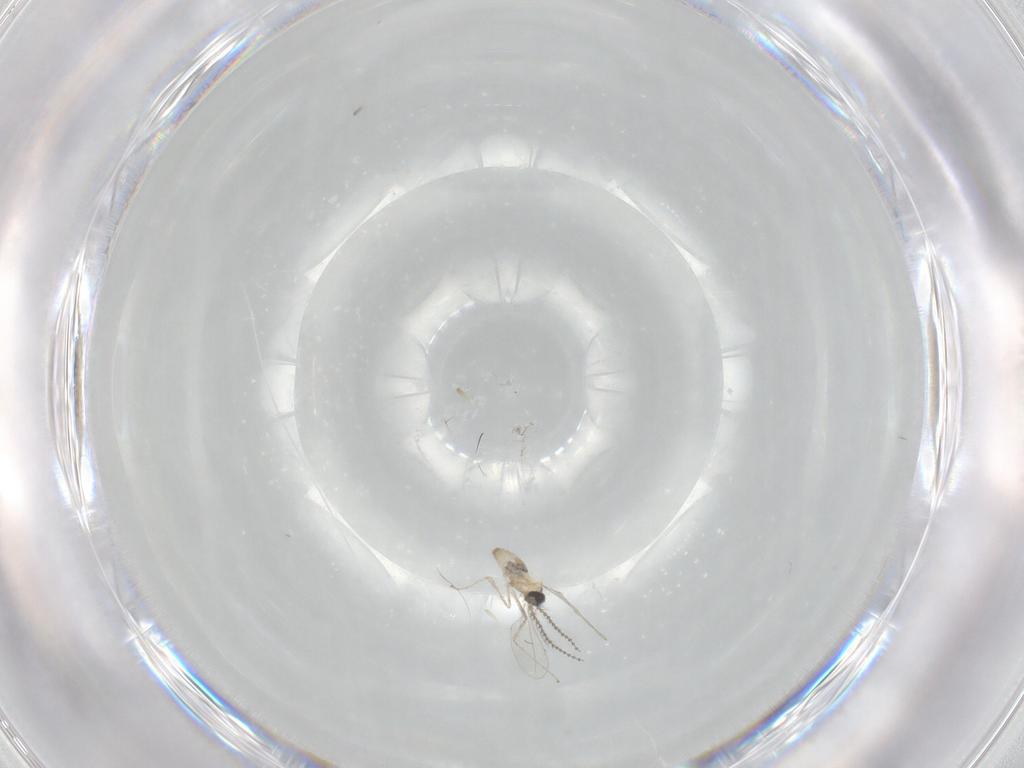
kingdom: Animalia
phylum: Arthropoda
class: Insecta
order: Diptera
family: Cecidomyiidae
